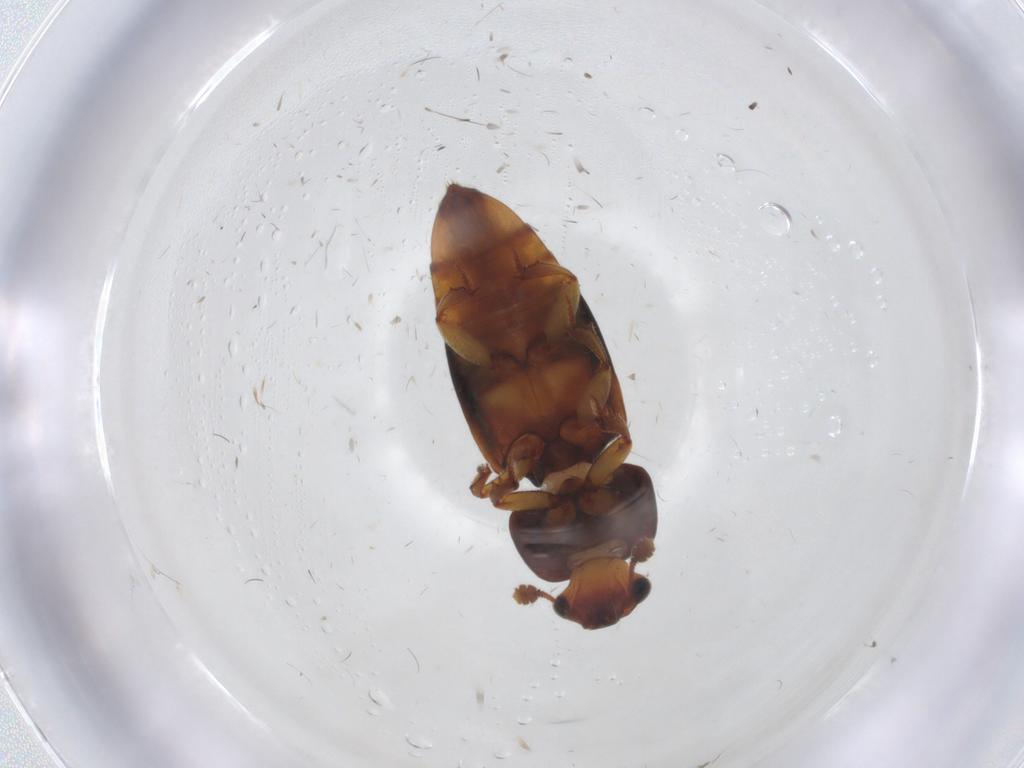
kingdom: Animalia
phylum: Arthropoda
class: Insecta
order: Coleoptera
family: Nitidulidae
